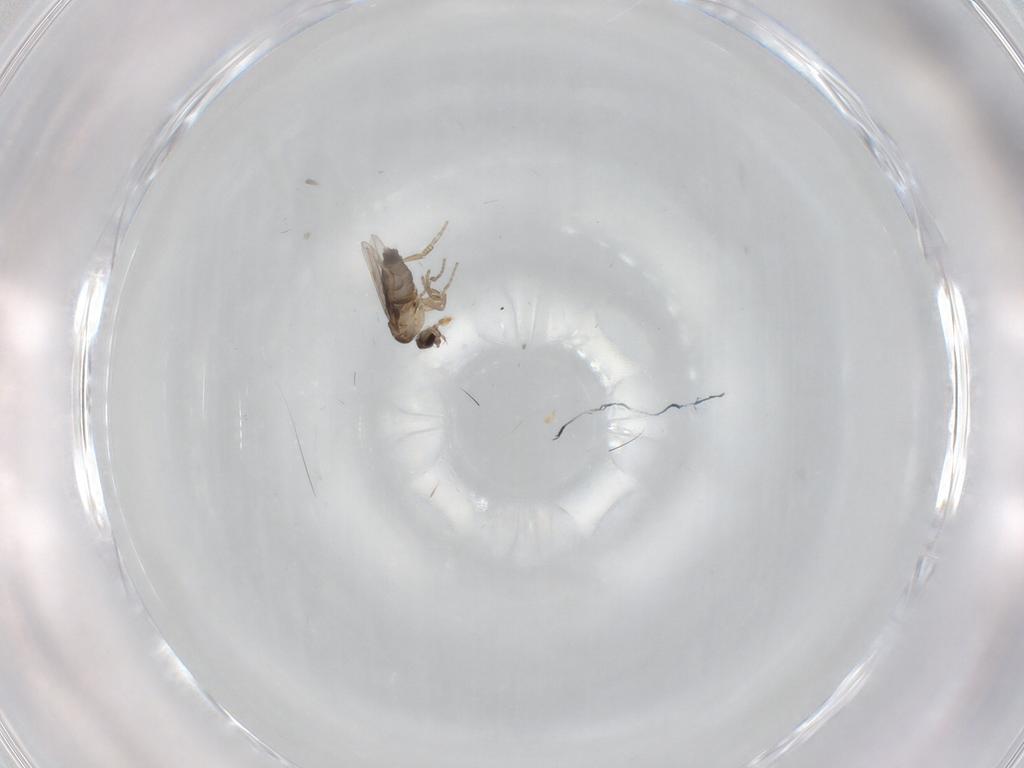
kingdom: Animalia
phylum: Arthropoda
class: Insecta
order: Diptera
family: Phoridae
